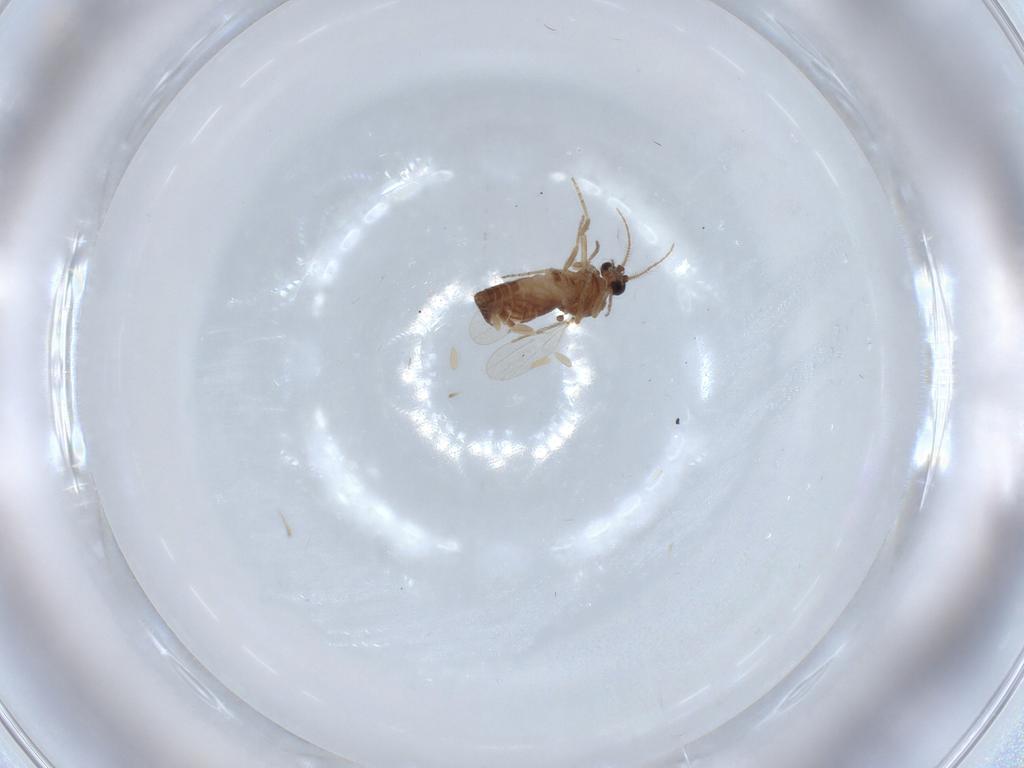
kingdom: Animalia
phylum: Arthropoda
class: Insecta
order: Diptera
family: Ceratopogonidae
